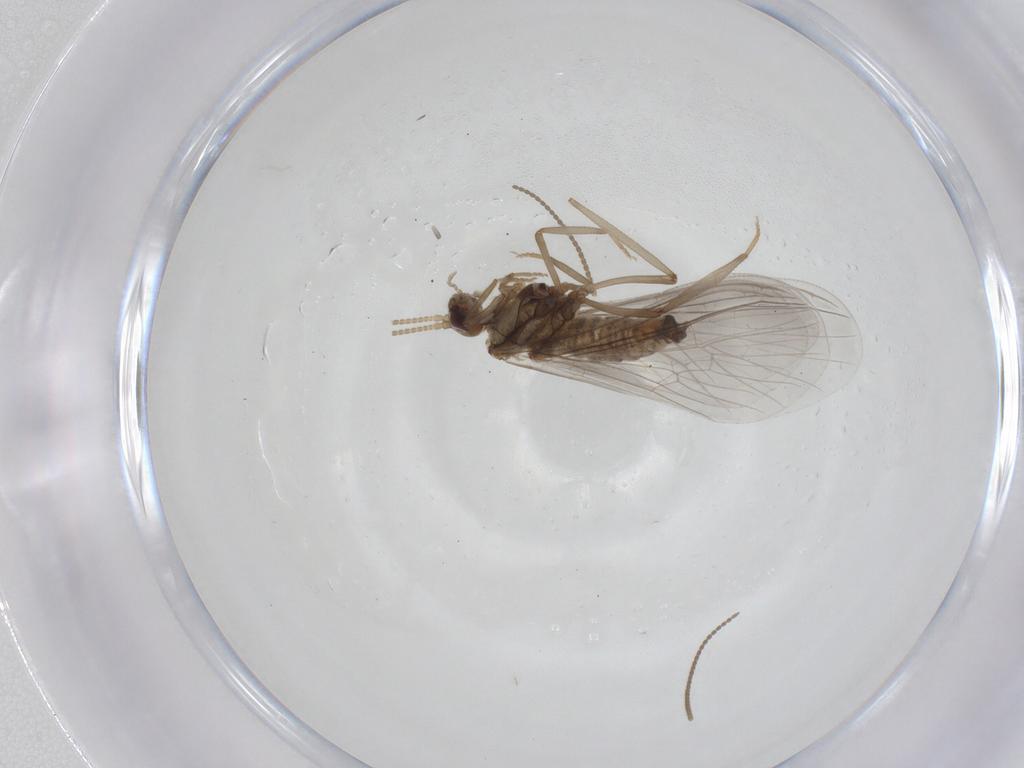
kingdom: Animalia
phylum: Arthropoda
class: Insecta
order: Neuroptera
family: Coniopterygidae
